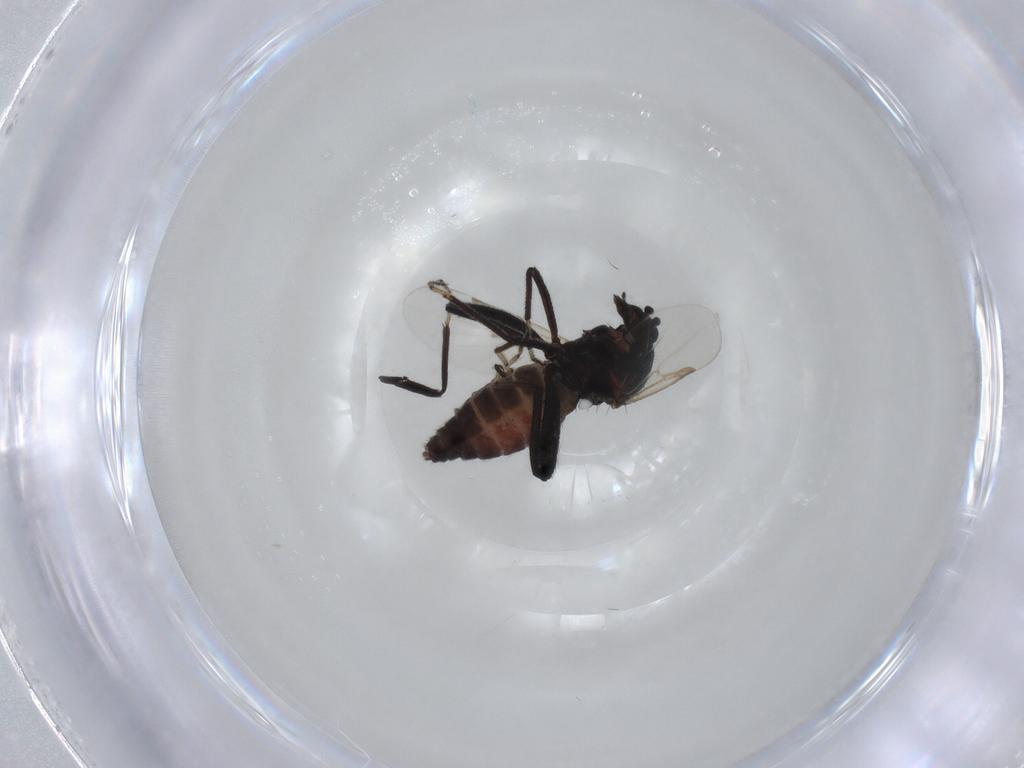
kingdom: Animalia
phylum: Arthropoda
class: Insecta
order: Diptera
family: Ceratopogonidae
